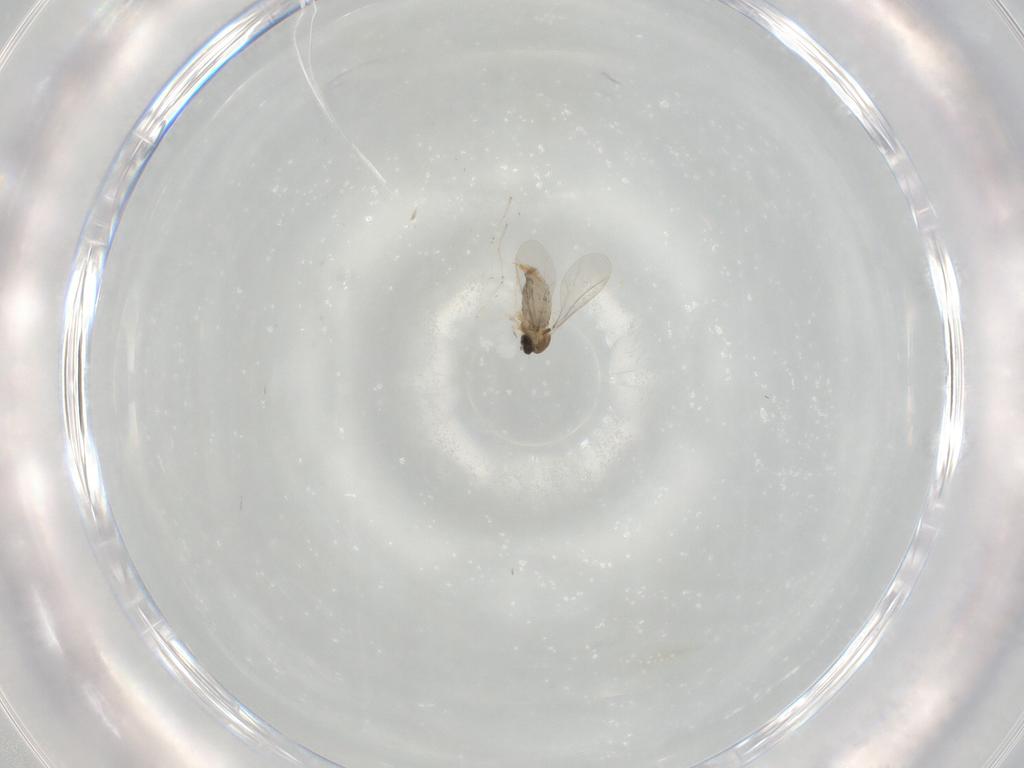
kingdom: Animalia
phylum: Arthropoda
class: Insecta
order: Diptera
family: Cecidomyiidae
